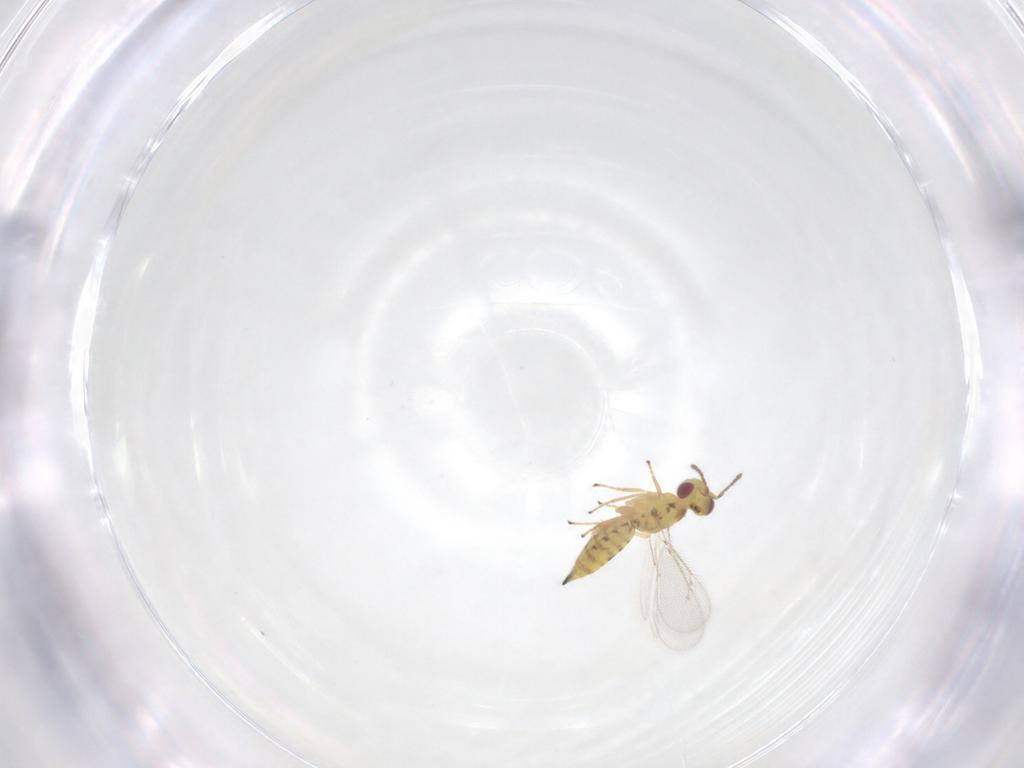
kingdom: Animalia
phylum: Arthropoda
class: Insecta
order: Hymenoptera
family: Eulophidae
